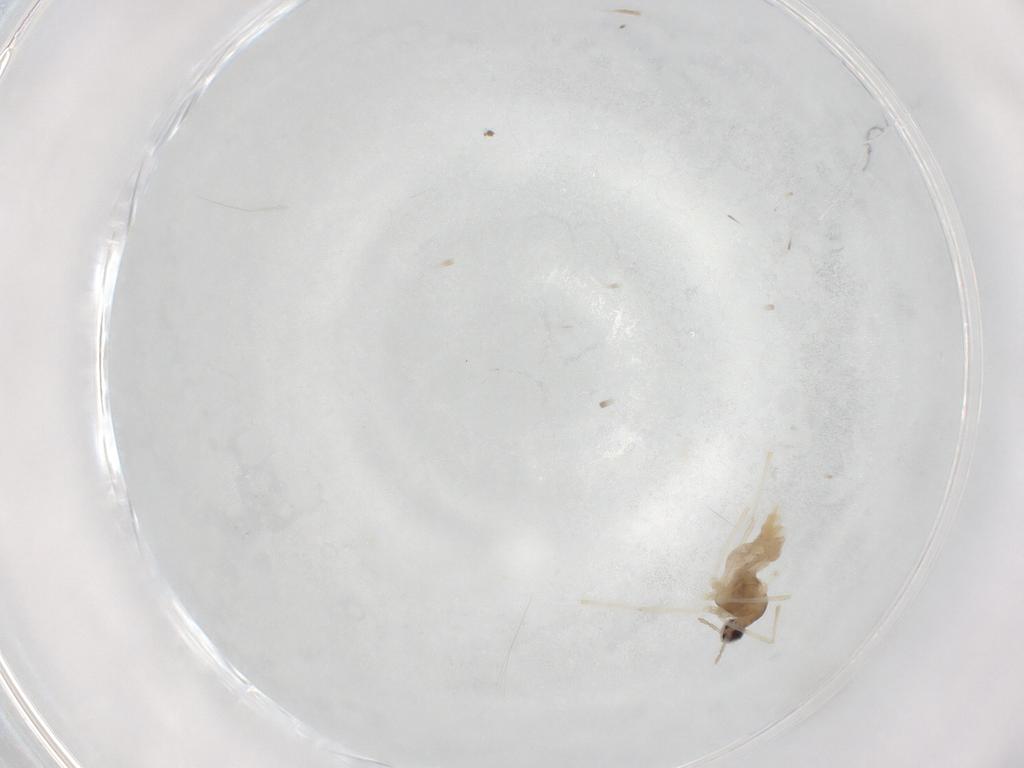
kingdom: Animalia
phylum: Arthropoda
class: Insecta
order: Diptera
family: Cecidomyiidae
